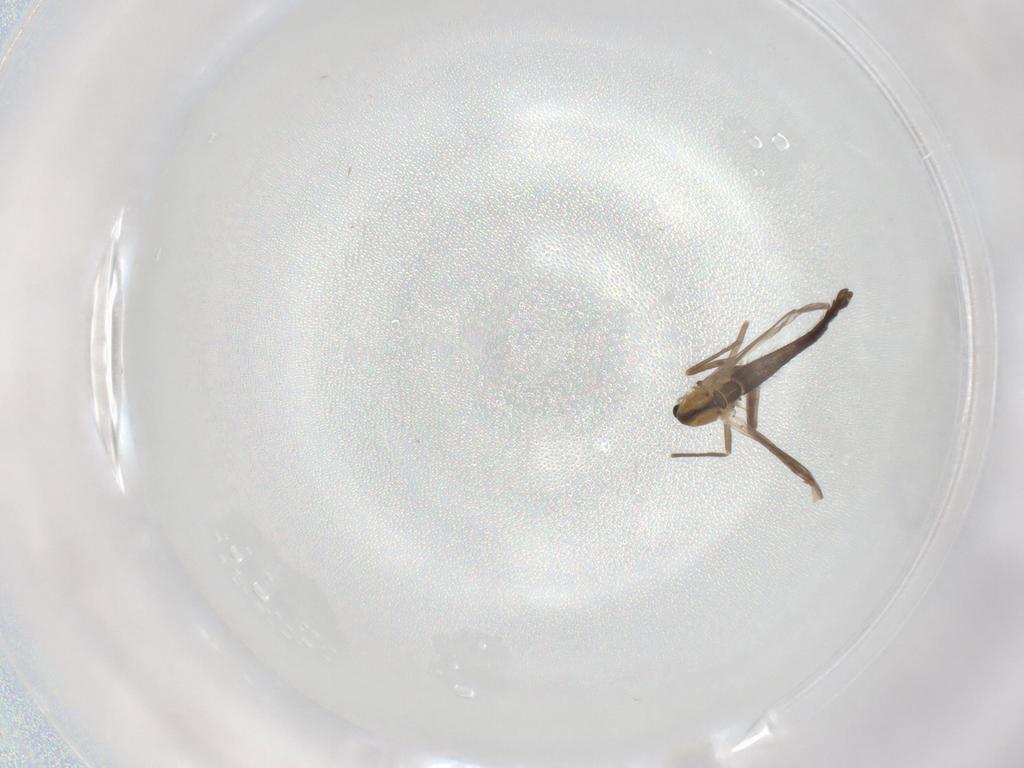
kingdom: Animalia
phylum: Arthropoda
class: Insecta
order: Diptera
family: Chironomidae
